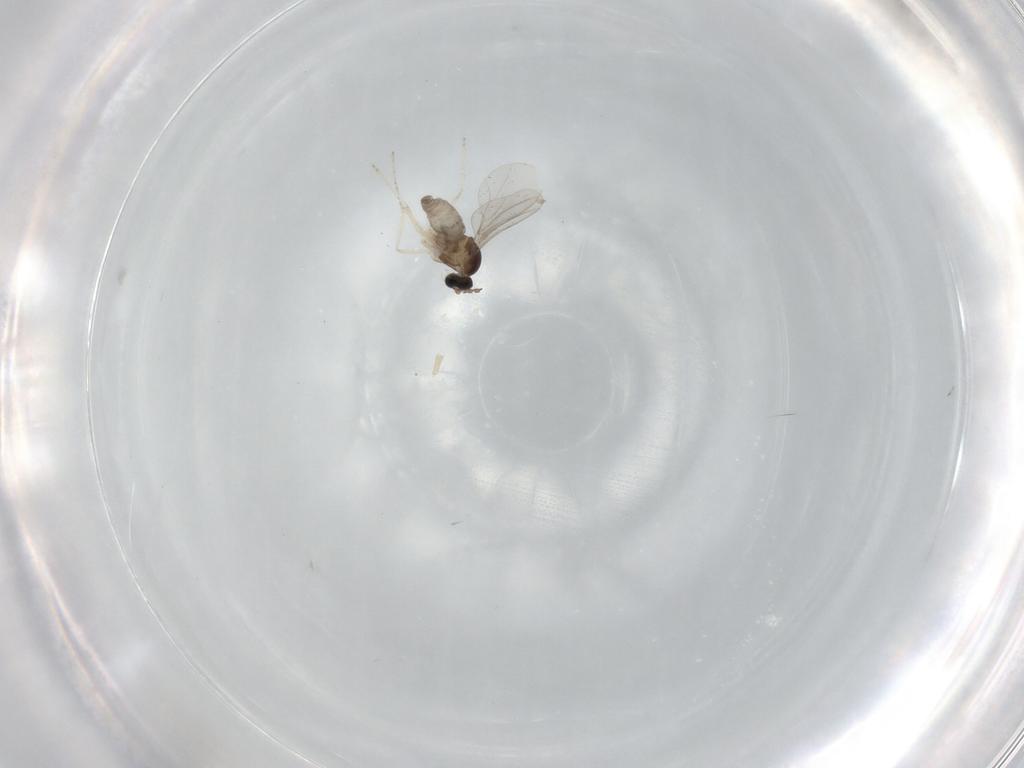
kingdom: Animalia
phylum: Arthropoda
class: Insecta
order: Diptera
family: Cecidomyiidae
